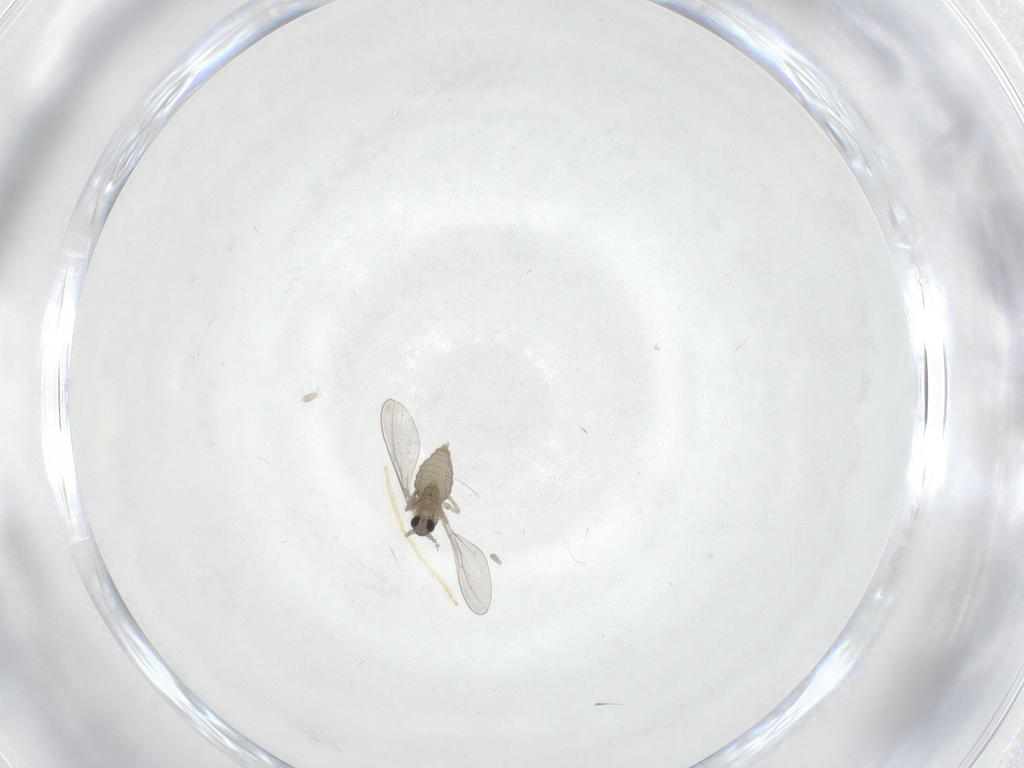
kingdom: Animalia
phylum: Arthropoda
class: Insecta
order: Diptera
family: Cecidomyiidae
